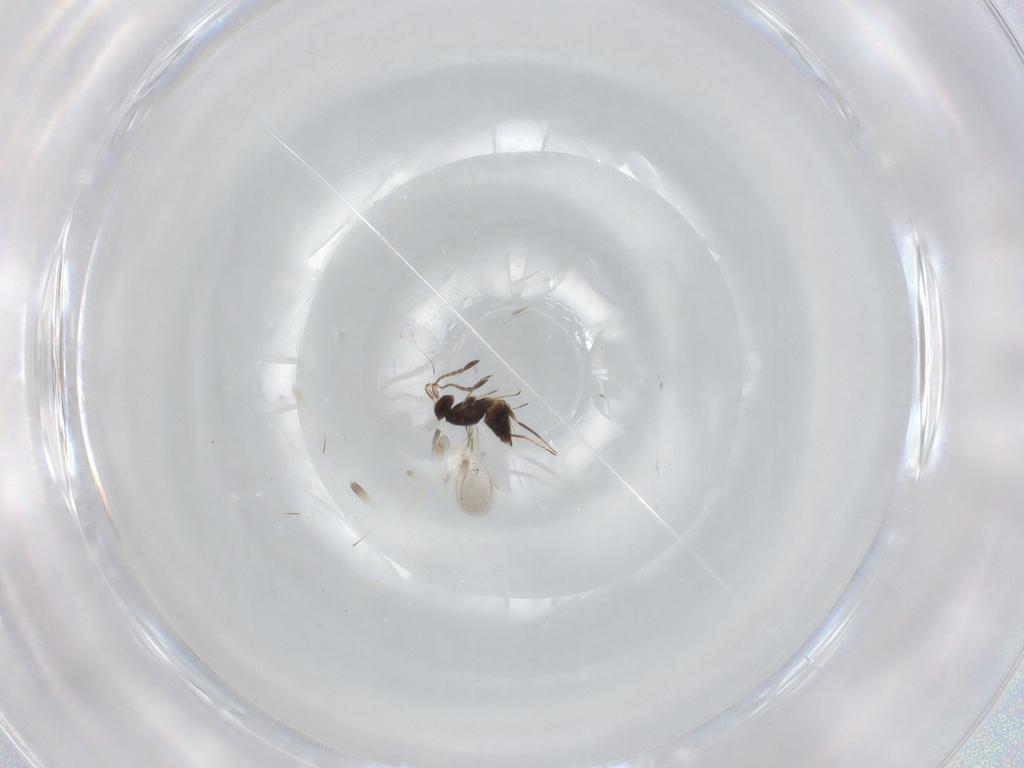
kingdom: Animalia
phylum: Arthropoda
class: Insecta
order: Hymenoptera
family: Mymaridae
